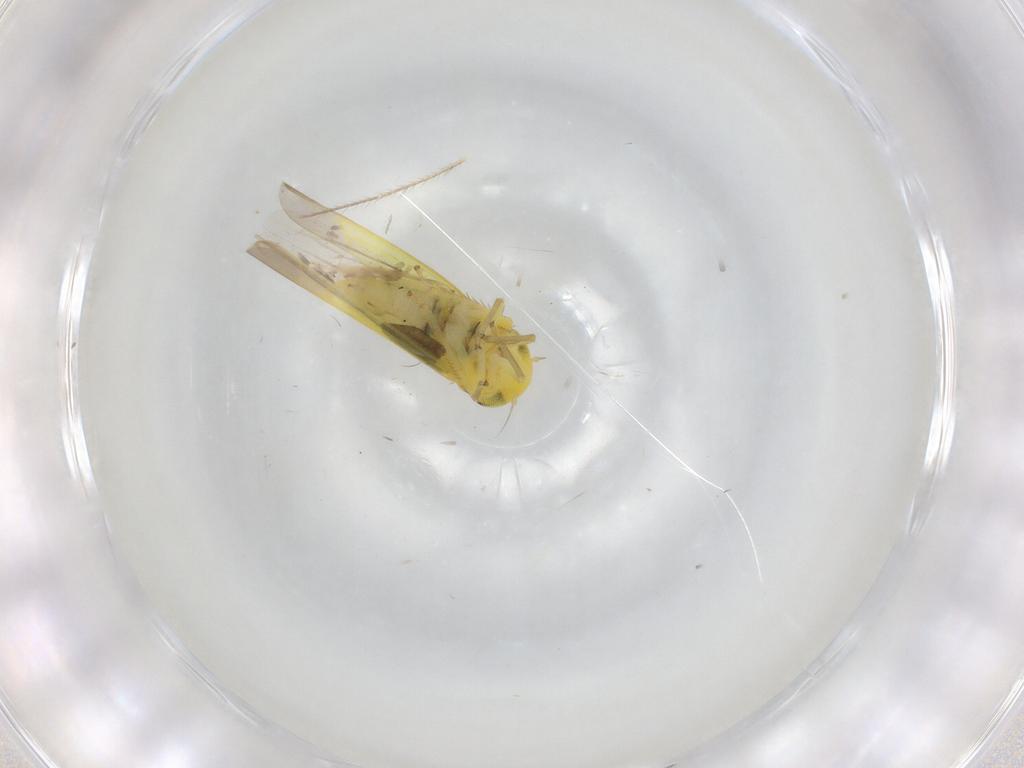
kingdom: Animalia
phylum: Arthropoda
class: Insecta
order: Hemiptera
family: Cicadellidae
